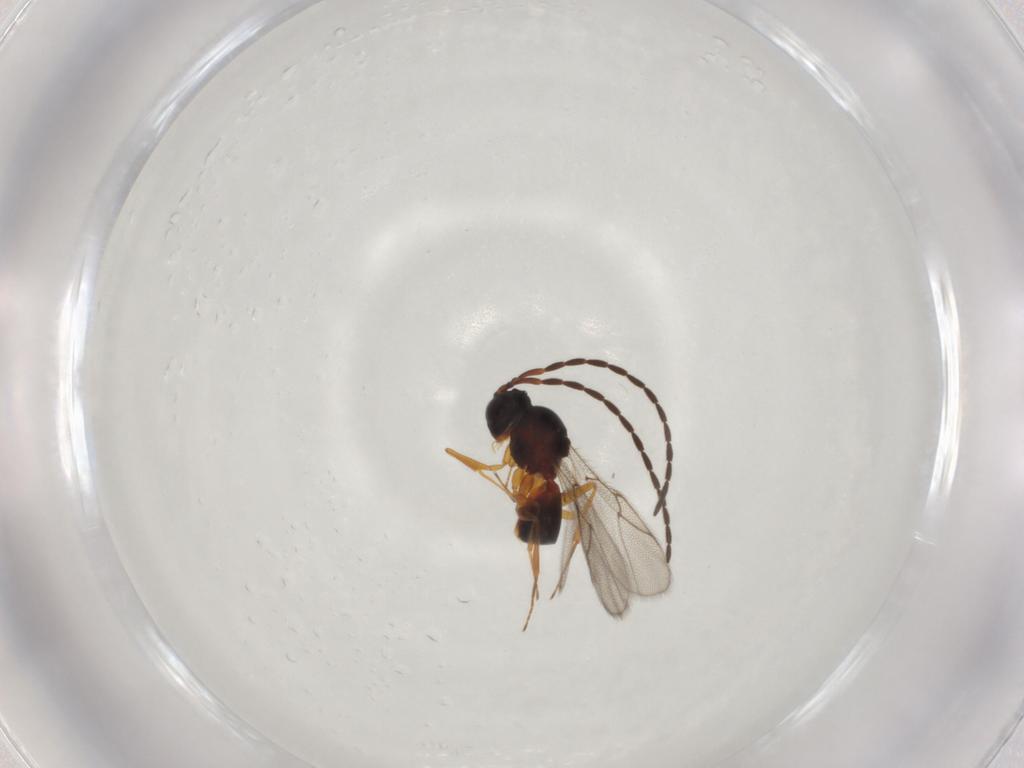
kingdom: Animalia
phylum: Arthropoda
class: Insecta
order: Hymenoptera
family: Figitidae
